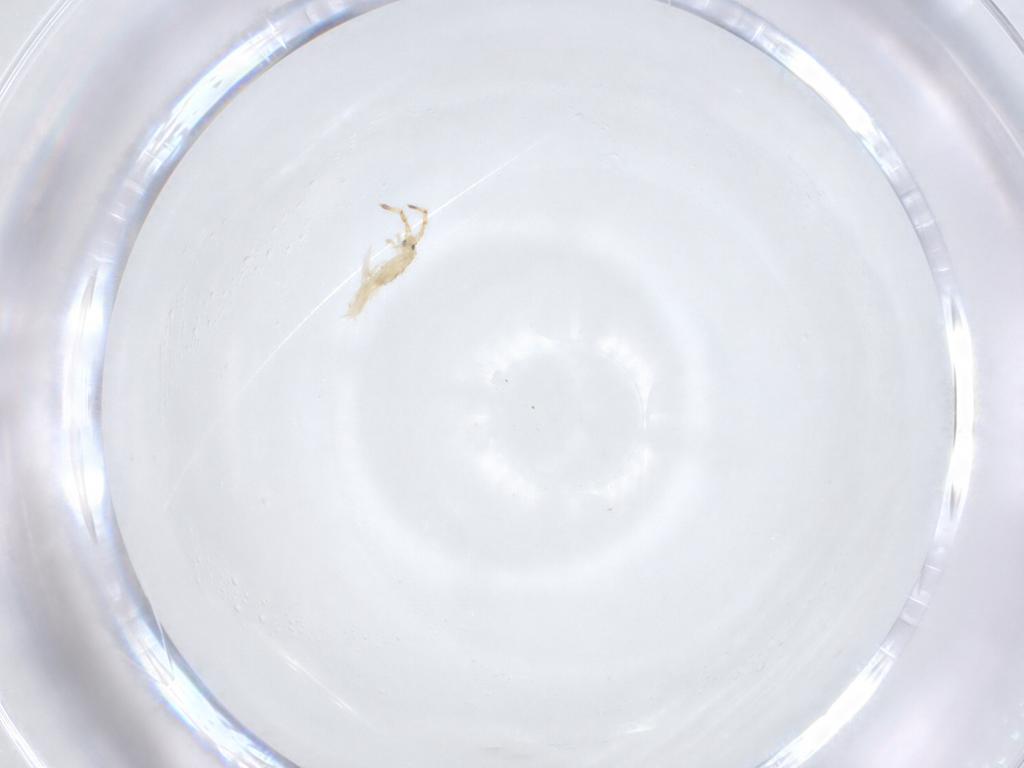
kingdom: Animalia
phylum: Arthropoda
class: Collembola
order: Entomobryomorpha
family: Entomobryidae
